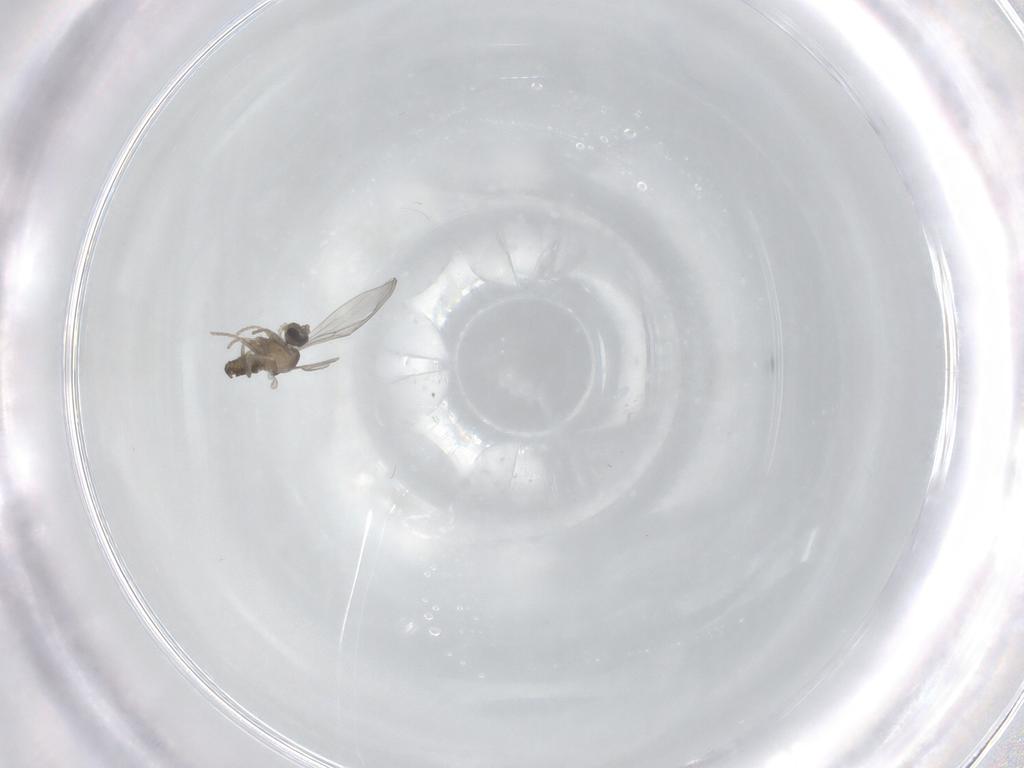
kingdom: Animalia
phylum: Arthropoda
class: Insecta
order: Diptera
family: Cecidomyiidae
